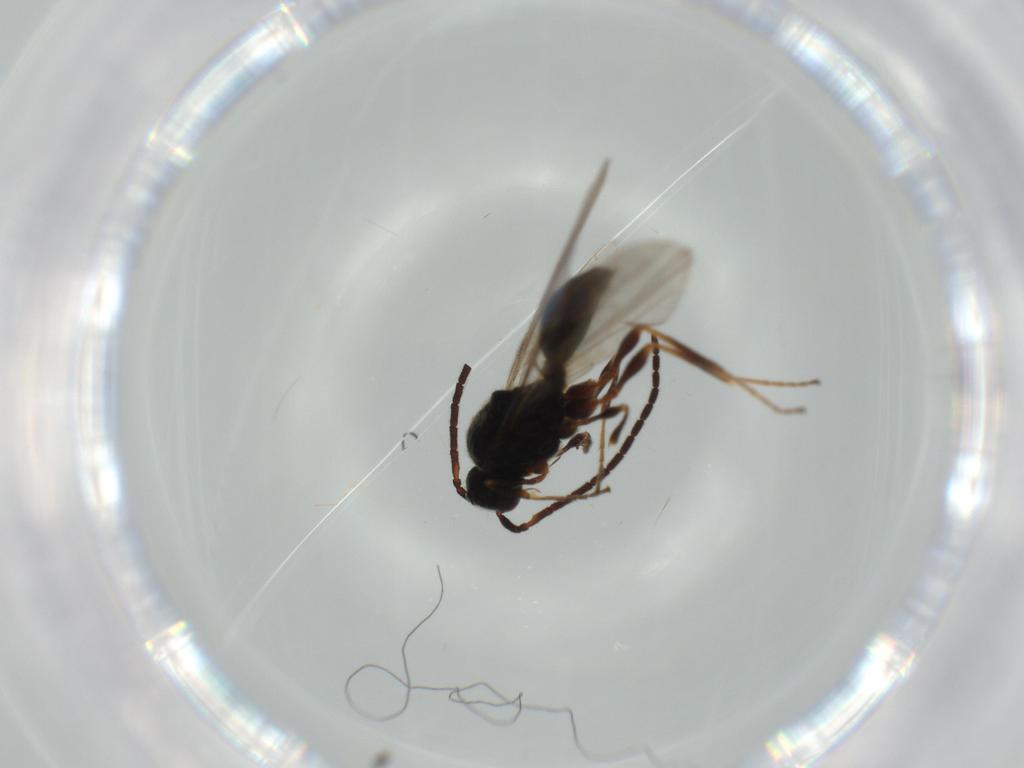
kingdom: Animalia
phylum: Arthropoda
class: Insecta
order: Hymenoptera
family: Diapriidae
